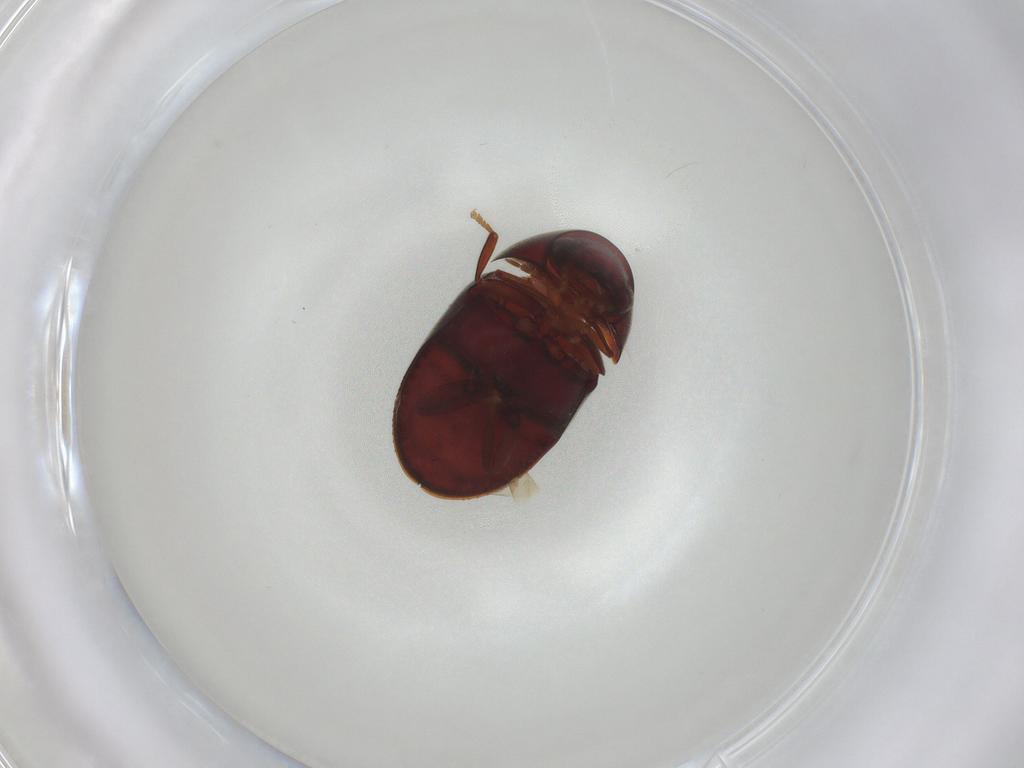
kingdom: Animalia
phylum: Arthropoda
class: Insecta
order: Coleoptera
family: Ptinidae
